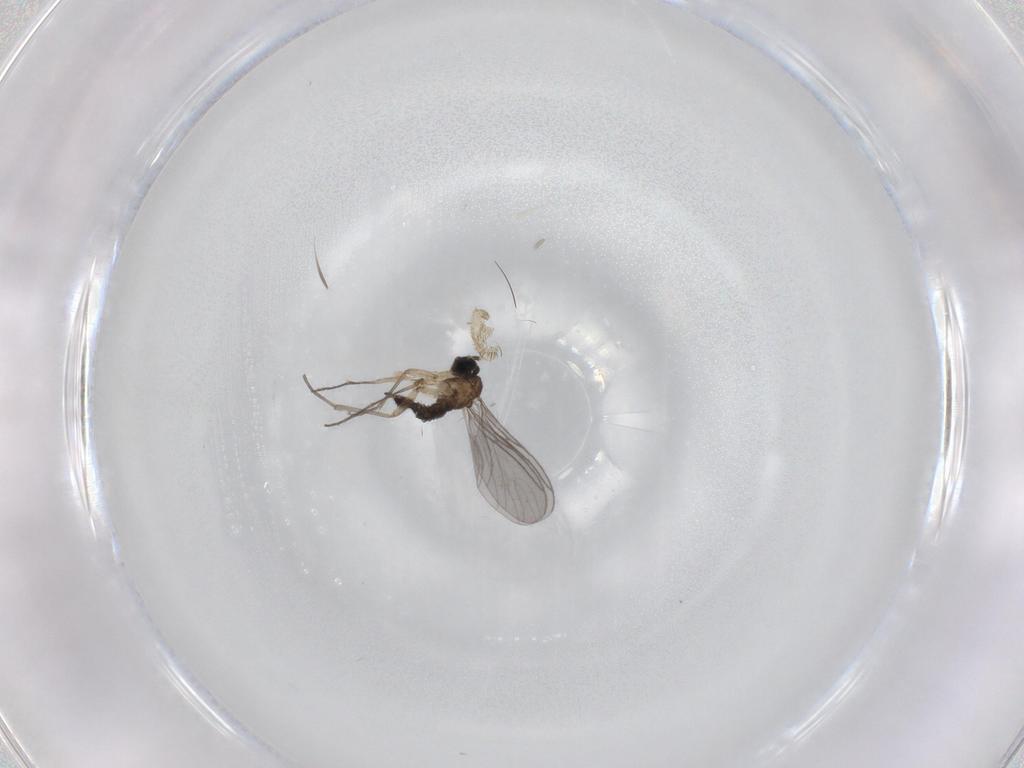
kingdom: Animalia
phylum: Arthropoda
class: Insecta
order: Diptera
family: Sciaridae
